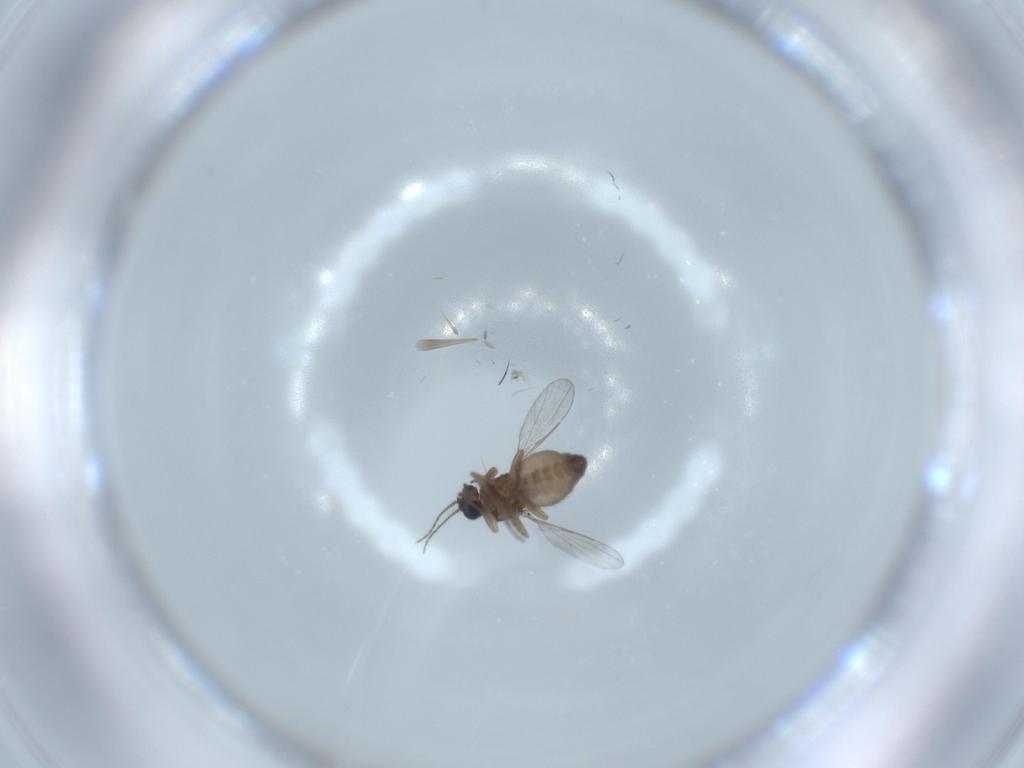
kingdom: Animalia
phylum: Arthropoda
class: Insecta
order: Diptera
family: Ceratopogonidae
